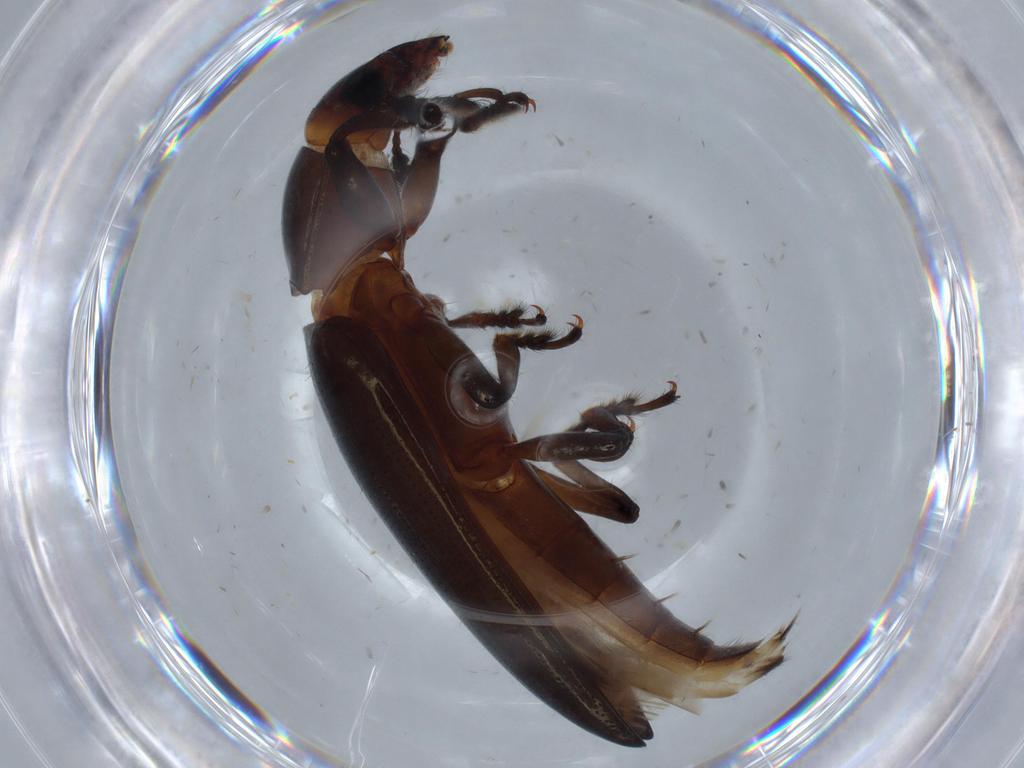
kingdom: Animalia
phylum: Arthropoda
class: Insecta
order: Coleoptera
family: Erotylidae
